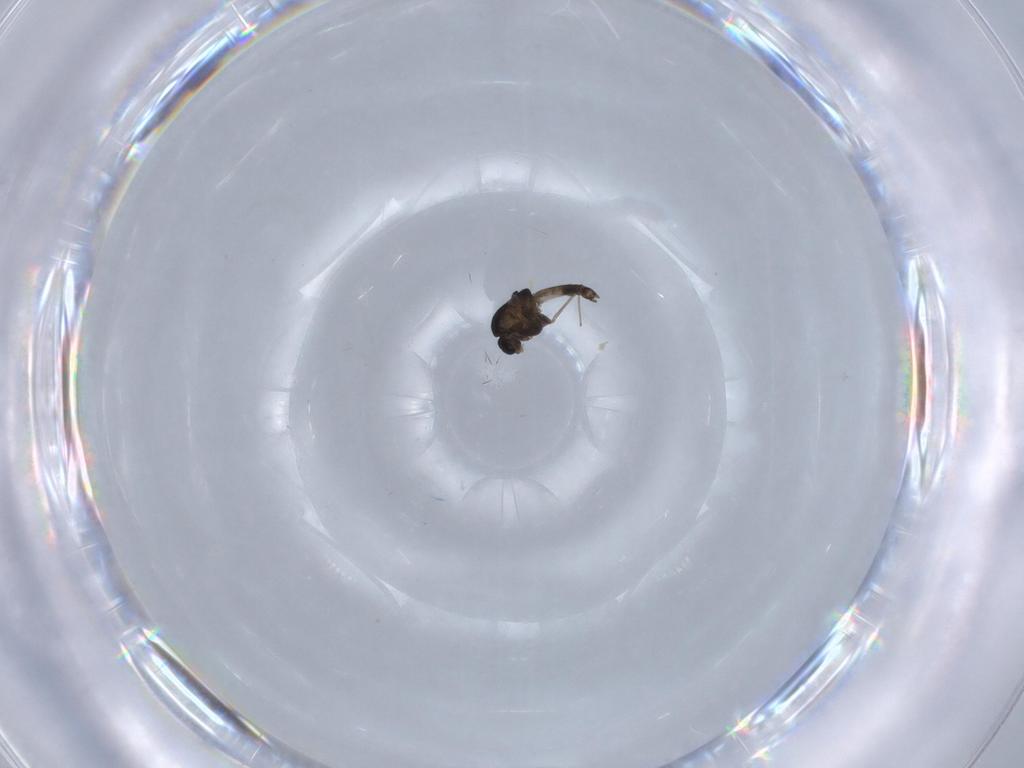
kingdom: Animalia
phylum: Arthropoda
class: Insecta
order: Diptera
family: Chironomidae
